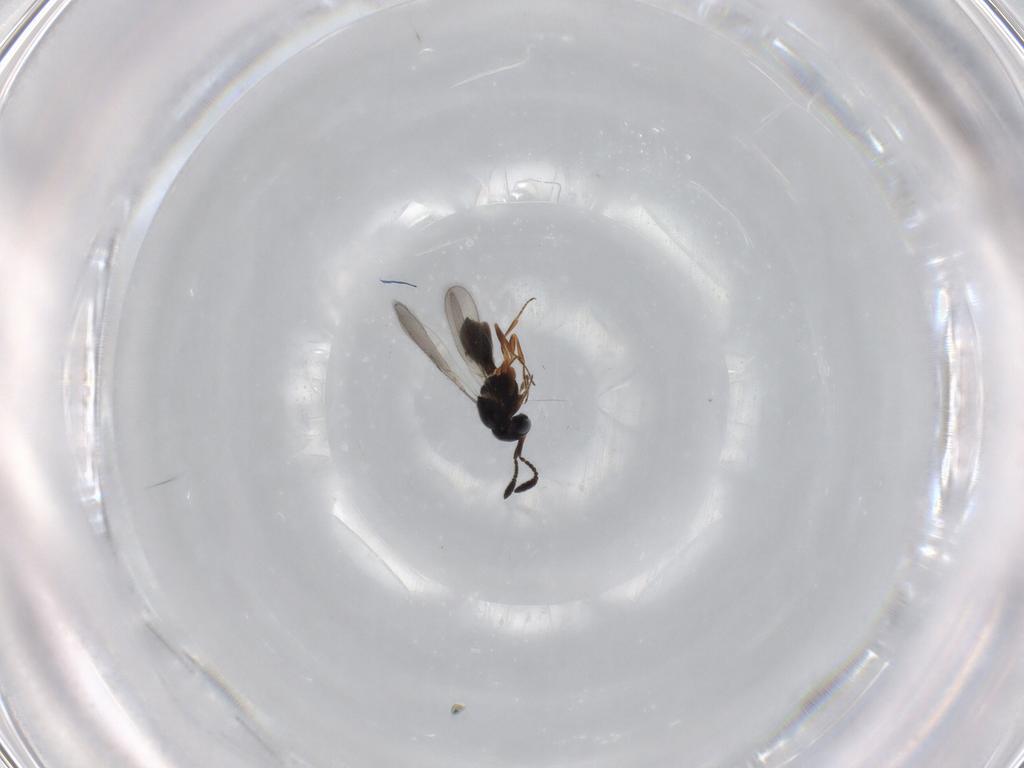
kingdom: Animalia
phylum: Arthropoda
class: Insecta
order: Hymenoptera
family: Scelionidae
